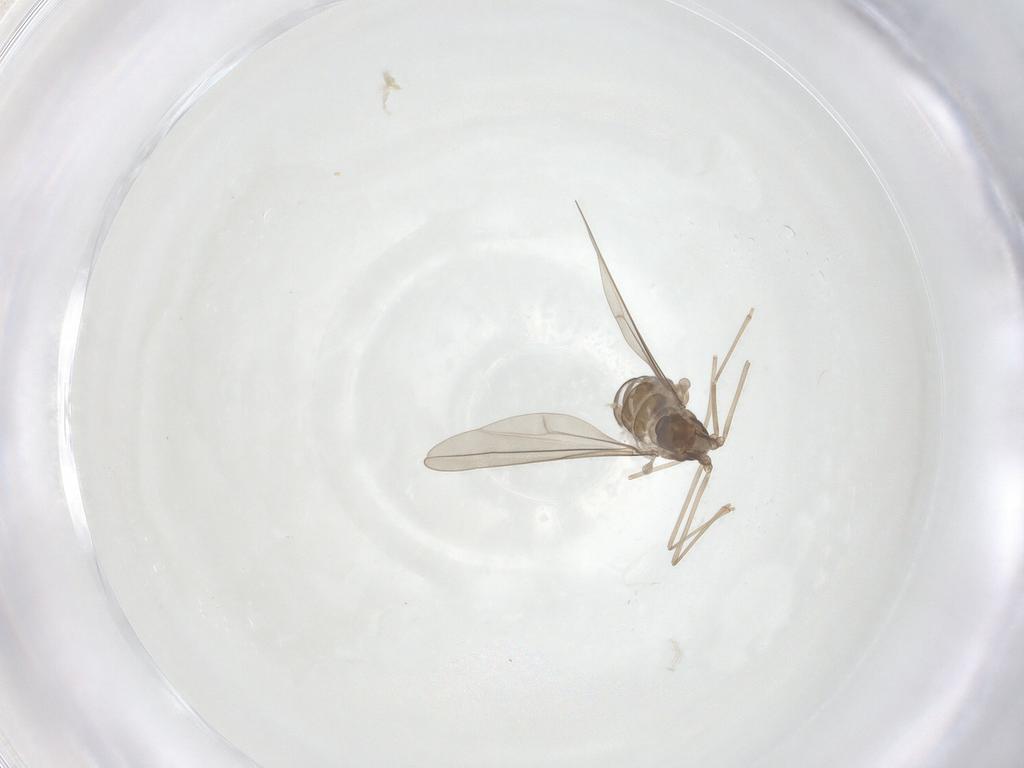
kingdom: Animalia
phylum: Arthropoda
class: Insecta
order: Diptera
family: Cecidomyiidae
